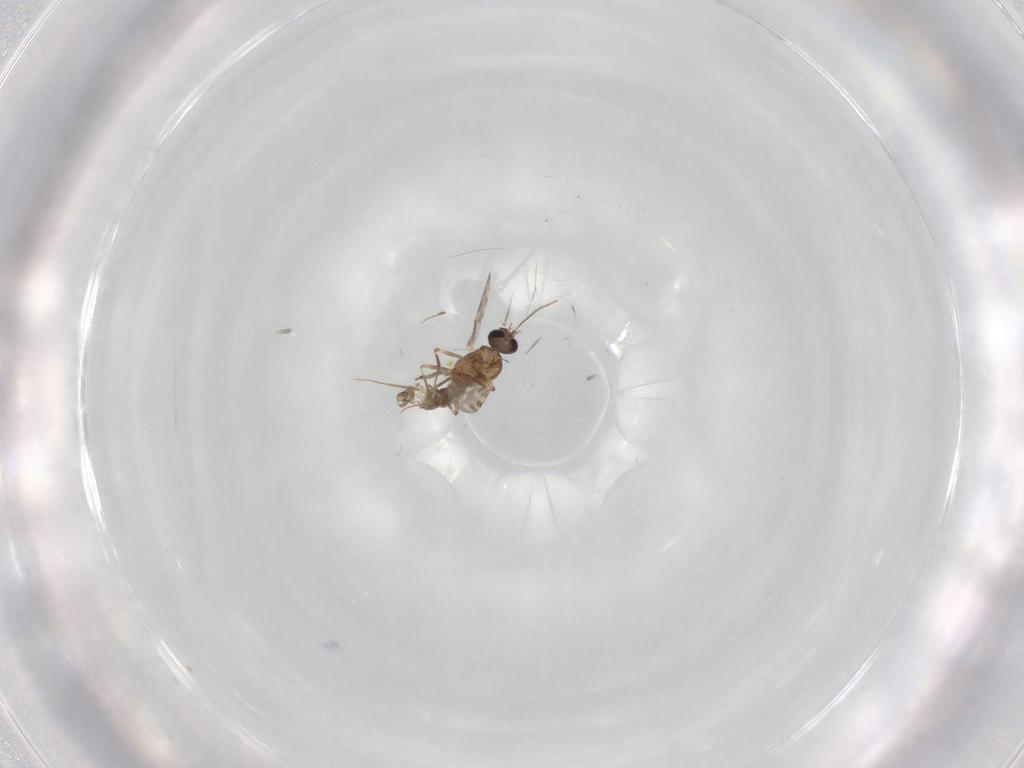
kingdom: Animalia
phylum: Arthropoda
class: Insecta
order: Diptera
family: Ceratopogonidae
